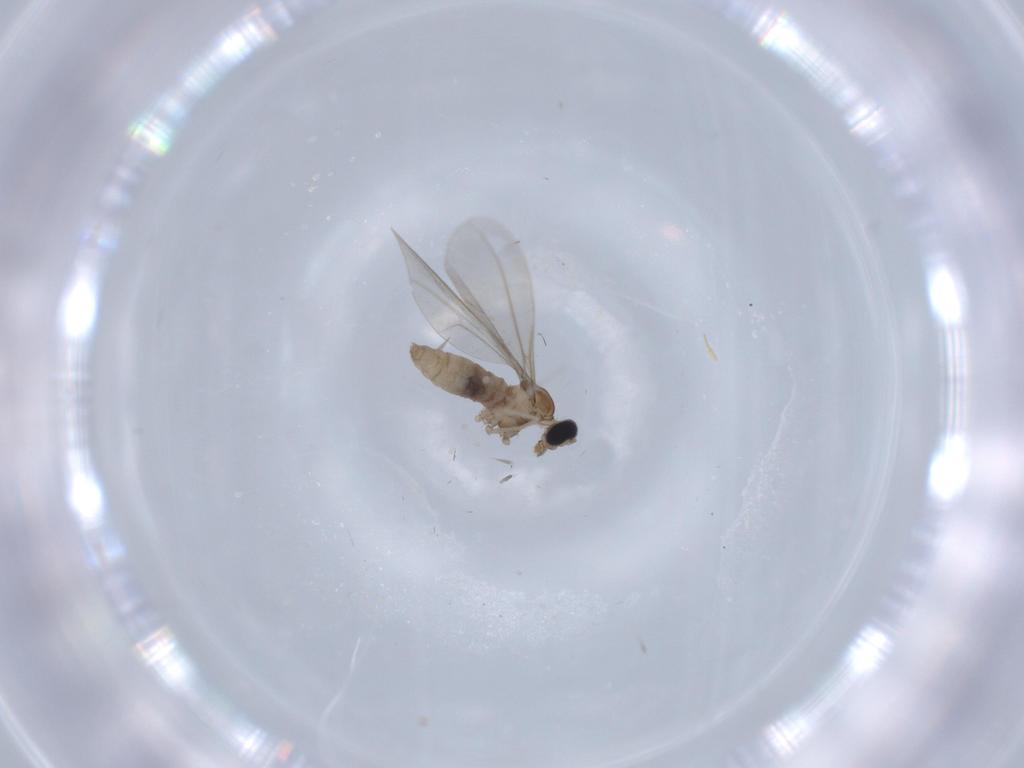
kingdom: Animalia
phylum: Arthropoda
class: Insecta
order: Diptera
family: Cecidomyiidae
